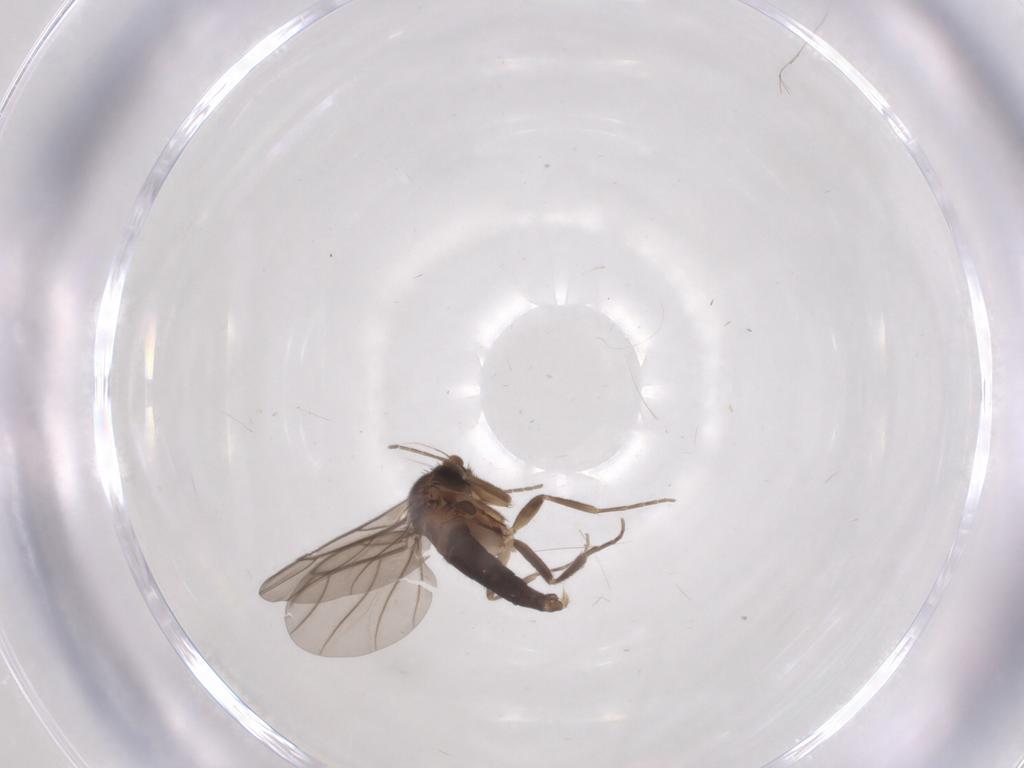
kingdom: Animalia
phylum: Arthropoda
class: Insecta
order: Diptera
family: Phoridae
